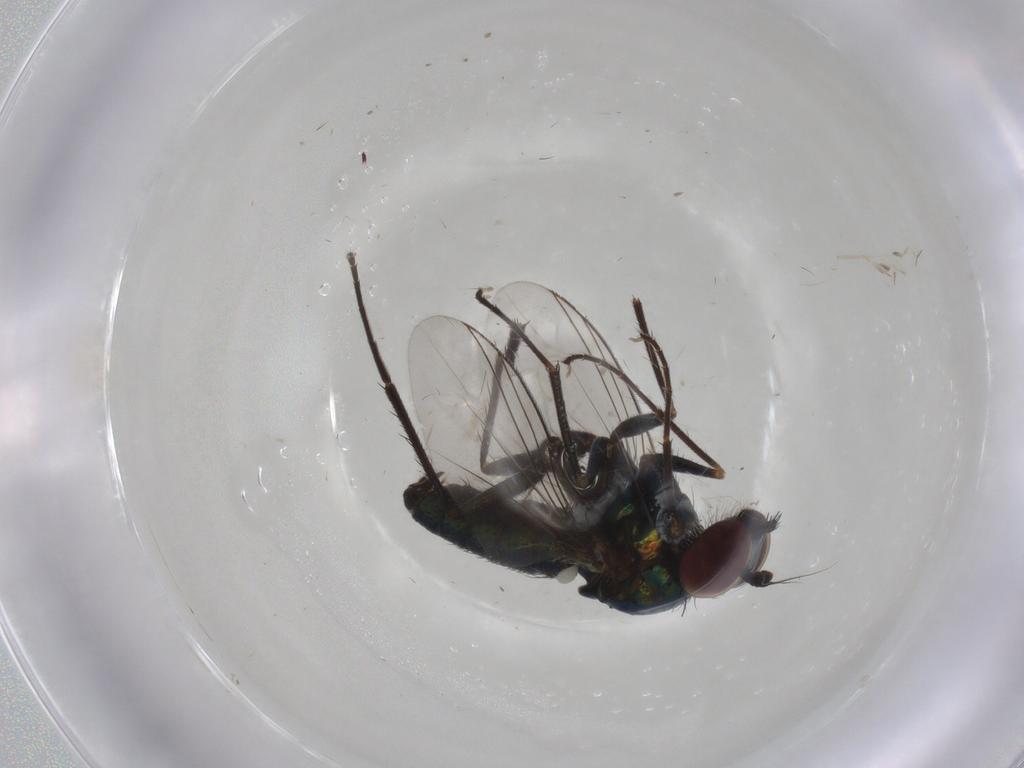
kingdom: Animalia
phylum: Arthropoda
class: Insecta
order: Diptera
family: Dolichopodidae
